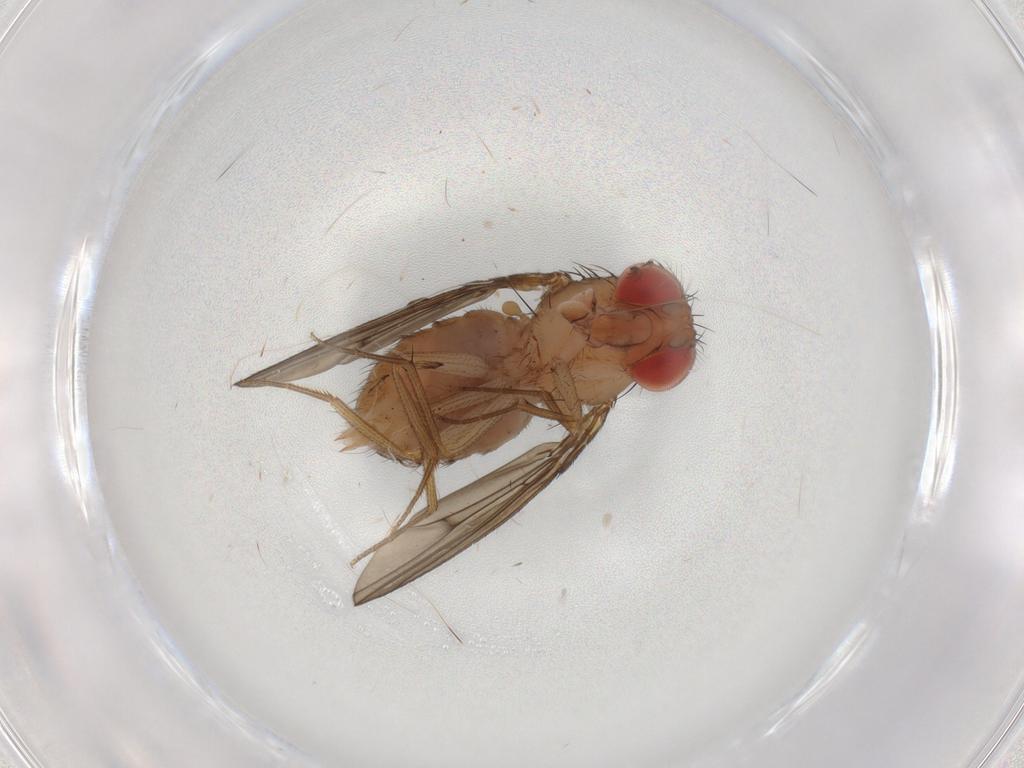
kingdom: Animalia
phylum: Arthropoda
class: Insecta
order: Diptera
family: Drosophilidae
